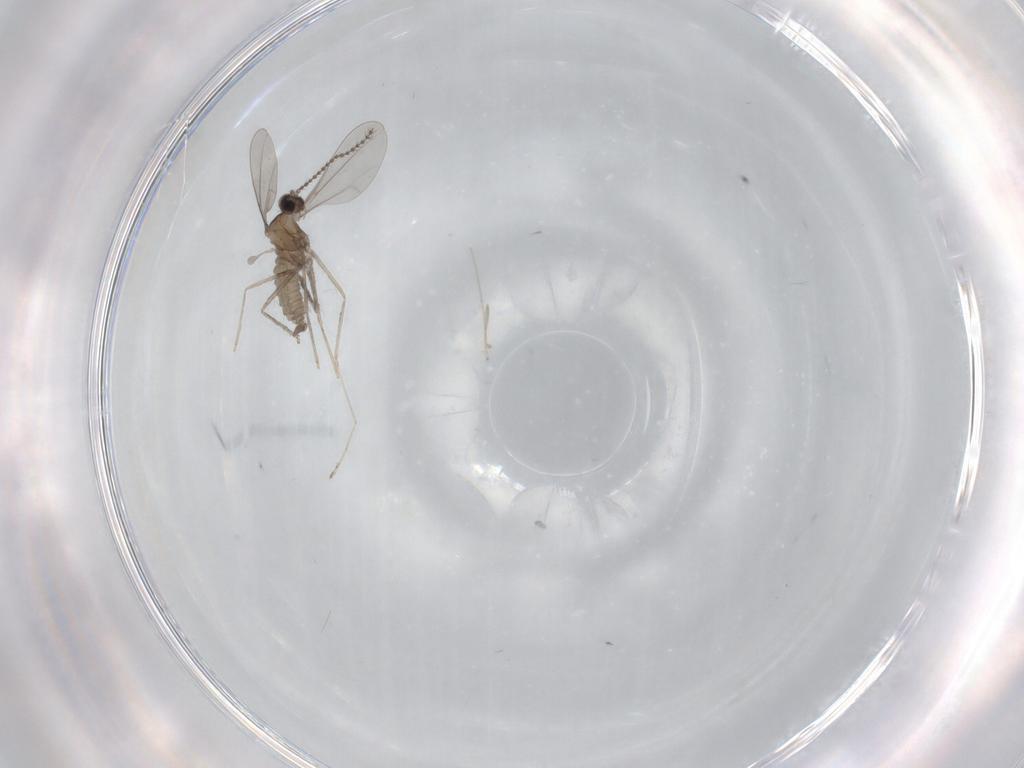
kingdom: Animalia
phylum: Arthropoda
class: Insecta
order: Diptera
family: Cecidomyiidae
